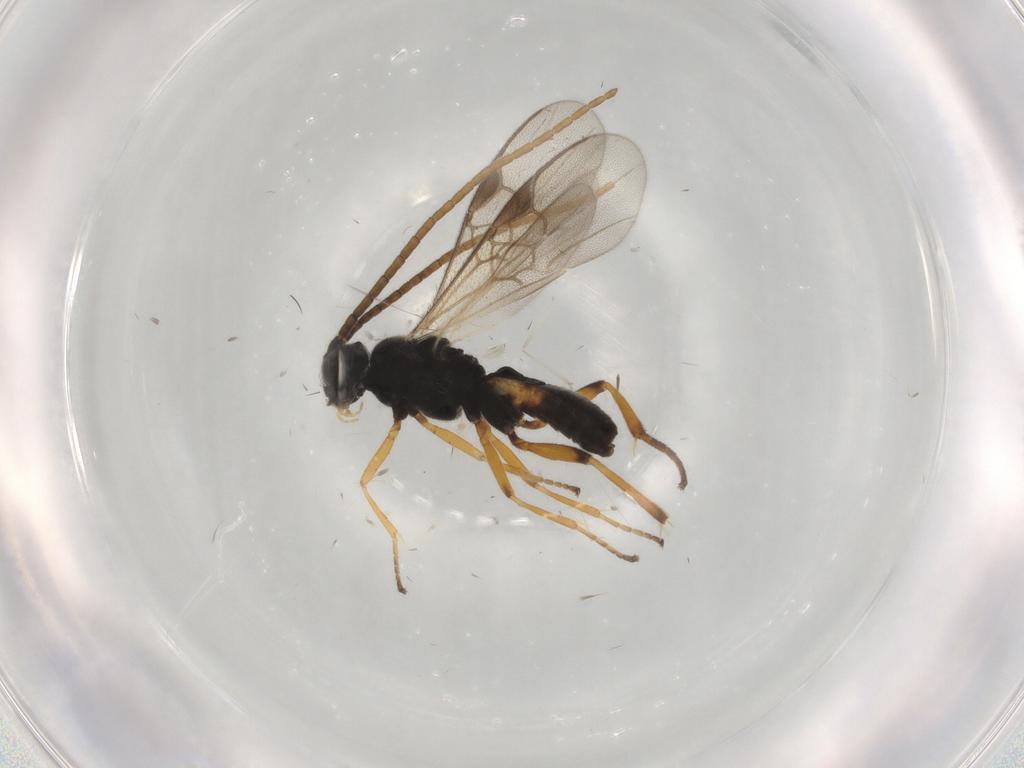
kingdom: Animalia
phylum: Arthropoda
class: Insecta
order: Hymenoptera
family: Braconidae
